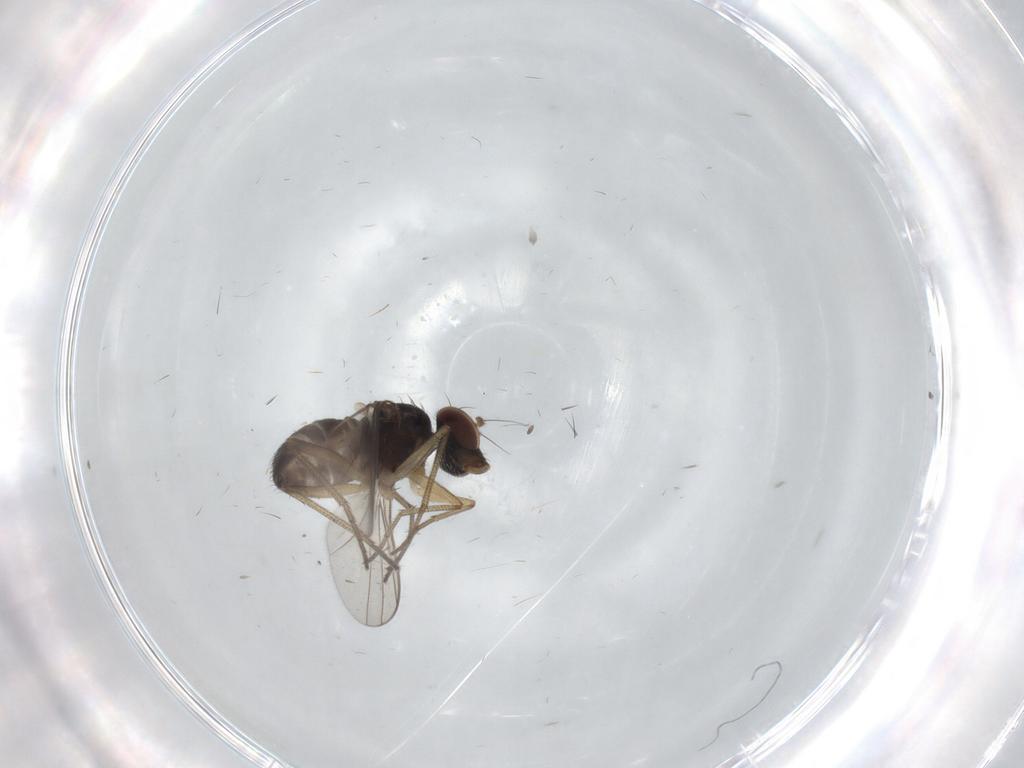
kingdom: Animalia
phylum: Arthropoda
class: Insecta
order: Diptera
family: Dolichopodidae
